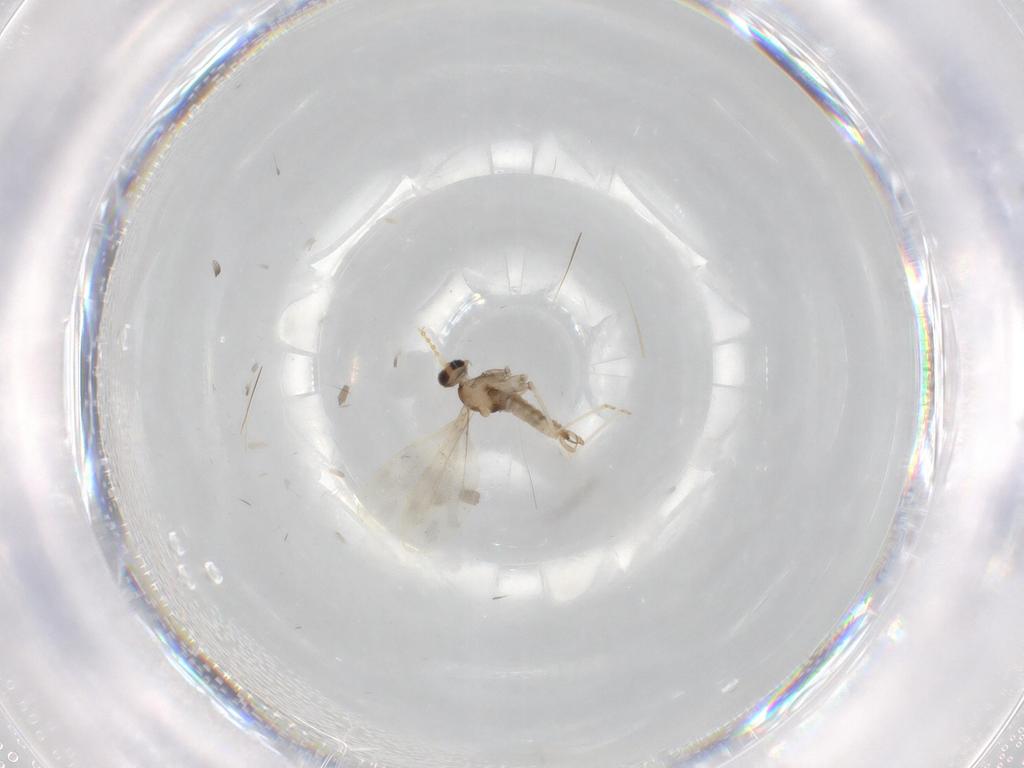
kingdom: Animalia
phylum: Arthropoda
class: Insecta
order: Diptera
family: Cecidomyiidae
